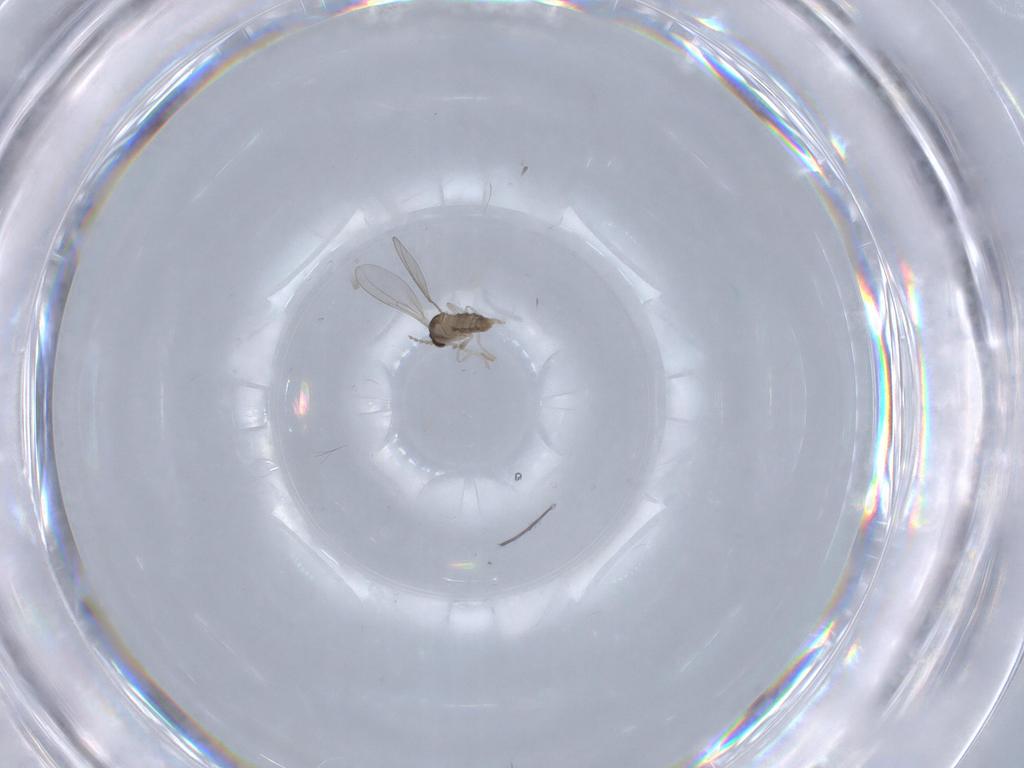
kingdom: Animalia
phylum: Arthropoda
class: Insecta
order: Diptera
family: Cecidomyiidae
